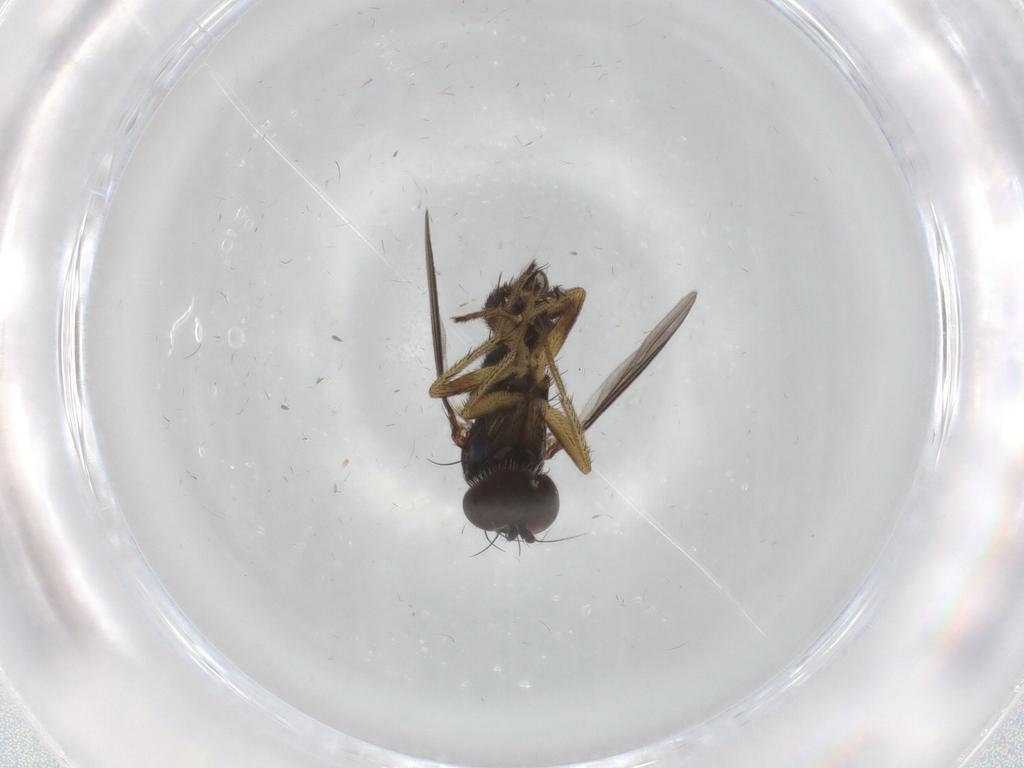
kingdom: Animalia
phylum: Arthropoda
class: Insecta
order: Diptera
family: Dolichopodidae
